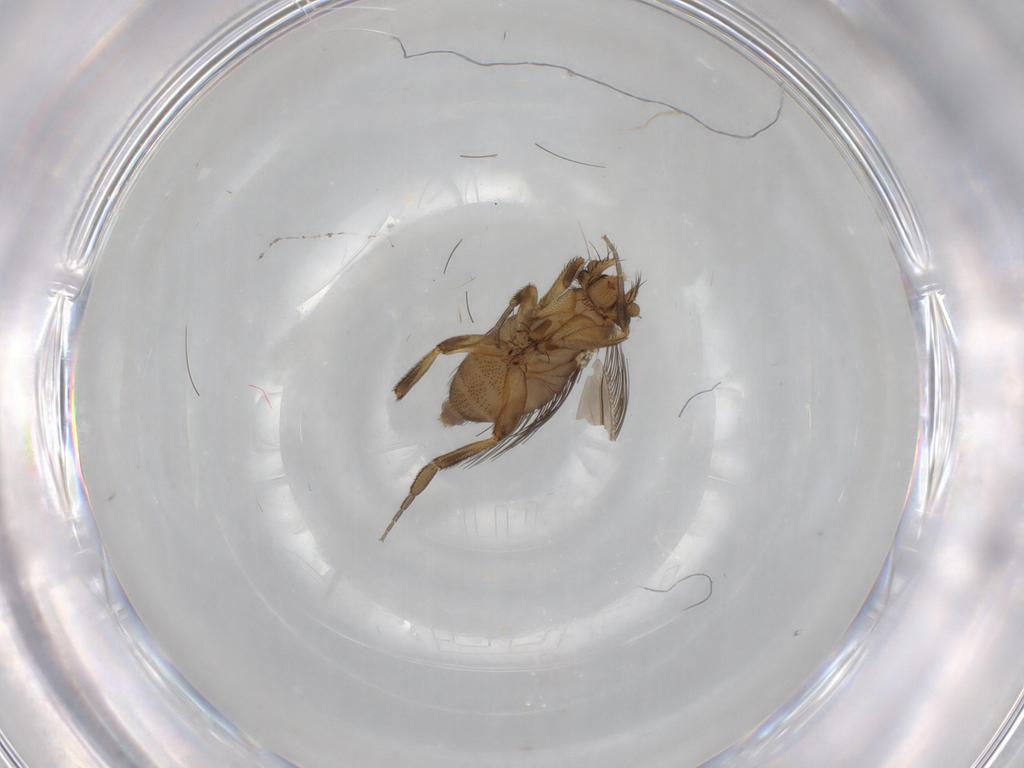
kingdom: Animalia
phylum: Arthropoda
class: Insecta
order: Diptera
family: Phoridae
